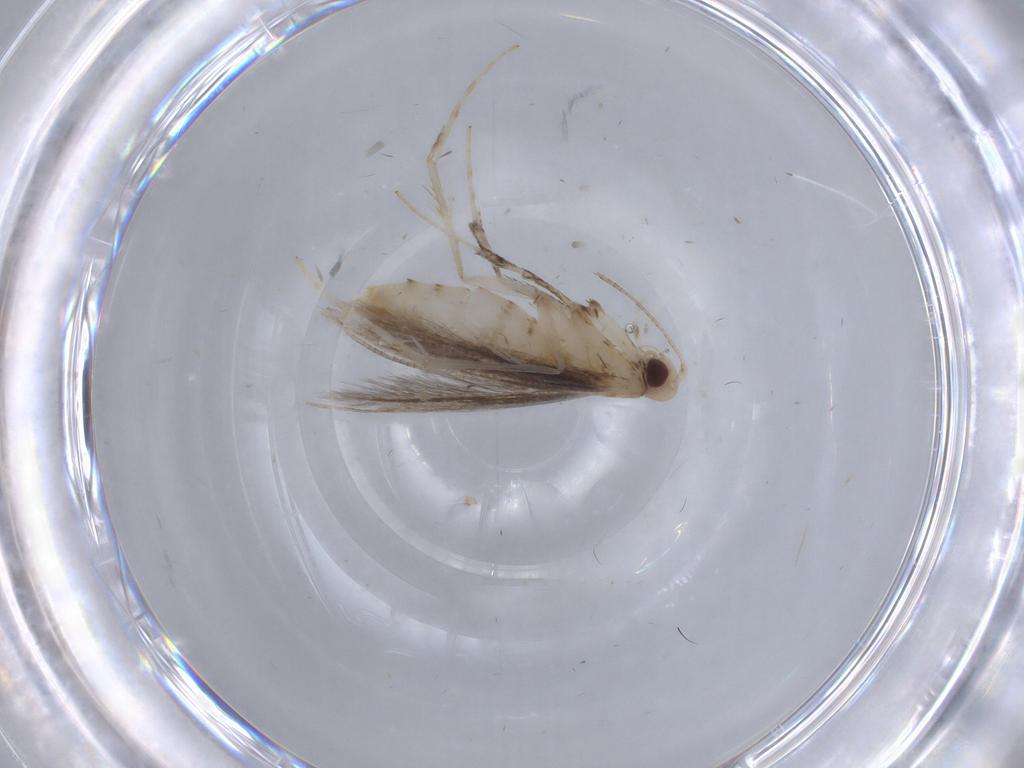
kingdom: Animalia
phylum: Arthropoda
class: Insecta
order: Lepidoptera
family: Gracillariidae
